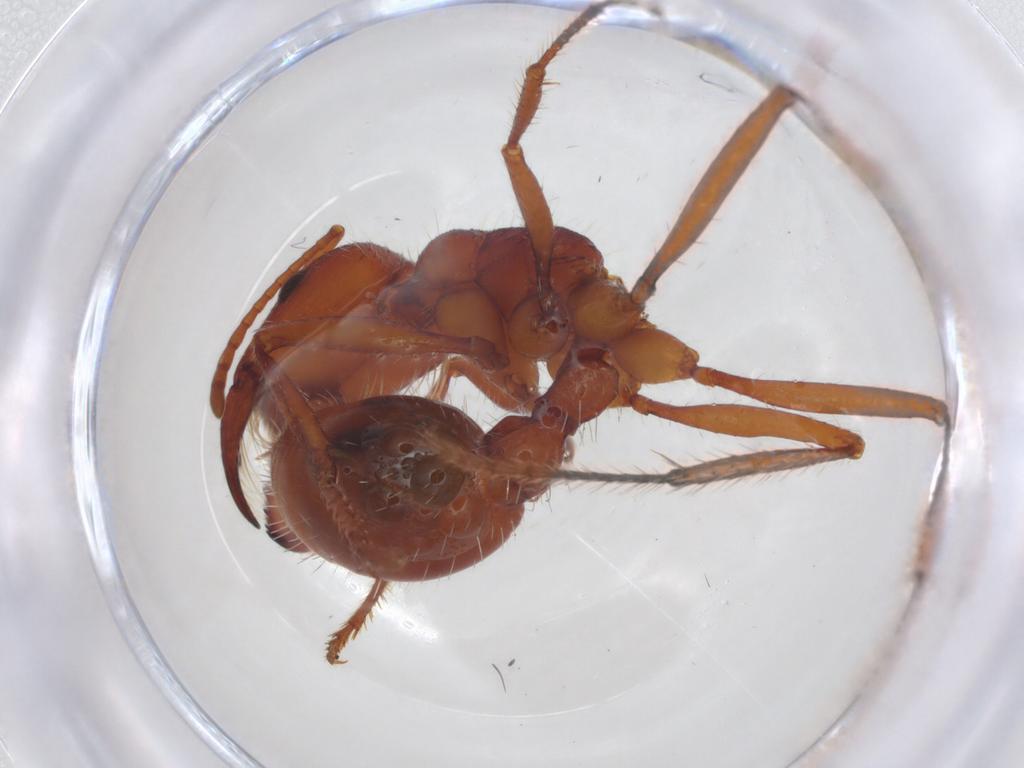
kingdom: Animalia
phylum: Arthropoda
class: Insecta
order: Hymenoptera
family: Formicidae
